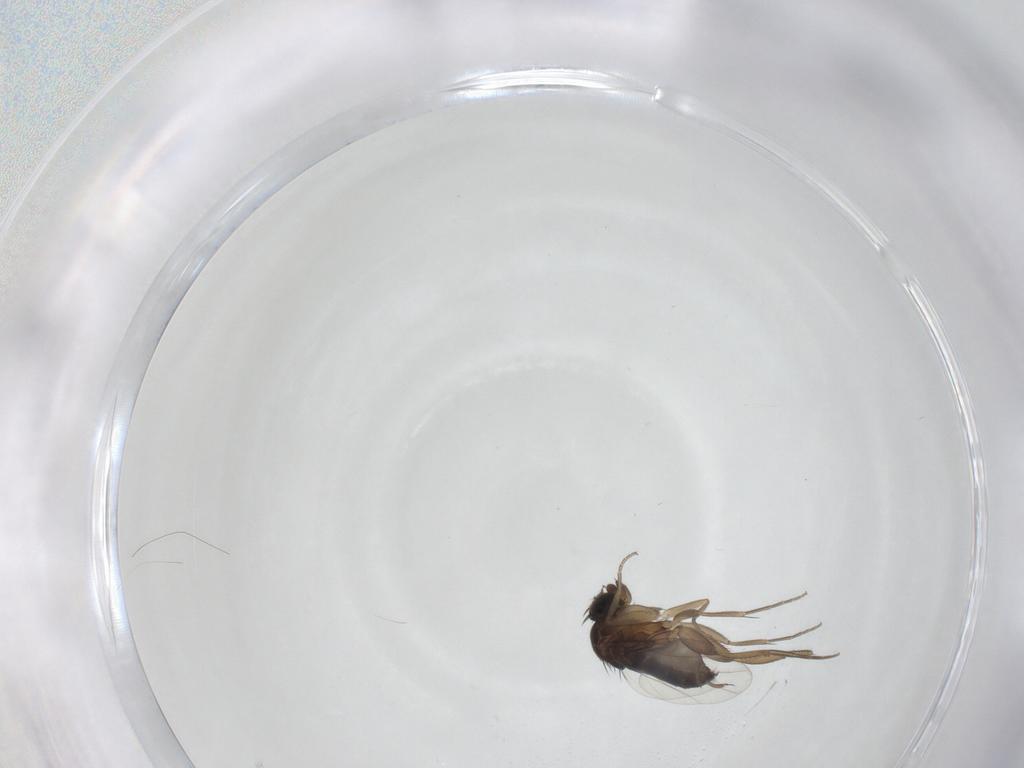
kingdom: Animalia
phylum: Arthropoda
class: Insecta
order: Diptera
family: Phoridae
